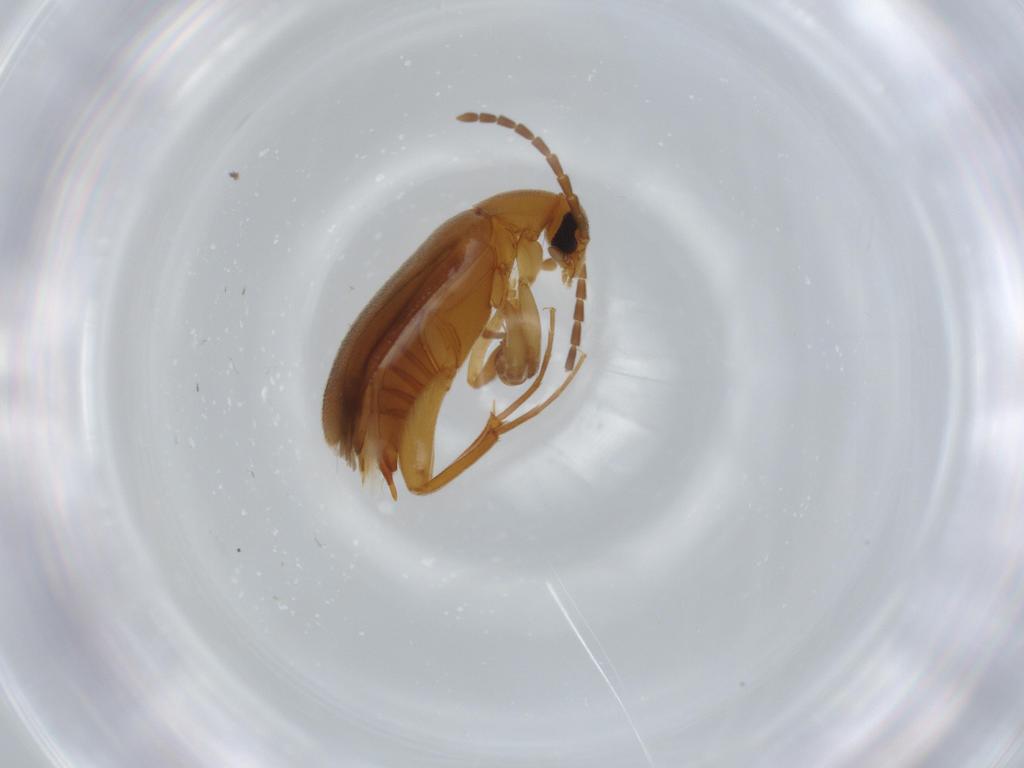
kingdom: Animalia
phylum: Arthropoda
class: Insecta
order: Coleoptera
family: Scraptiidae
